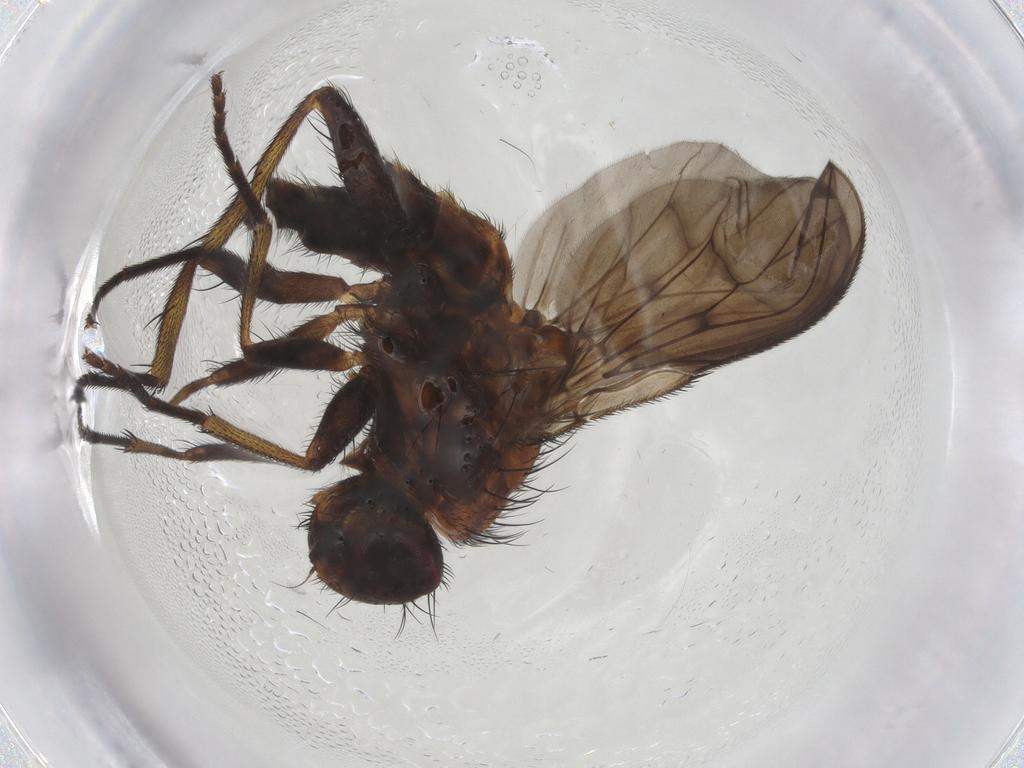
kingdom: Animalia
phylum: Arthropoda
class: Insecta
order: Diptera
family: Muscidae
